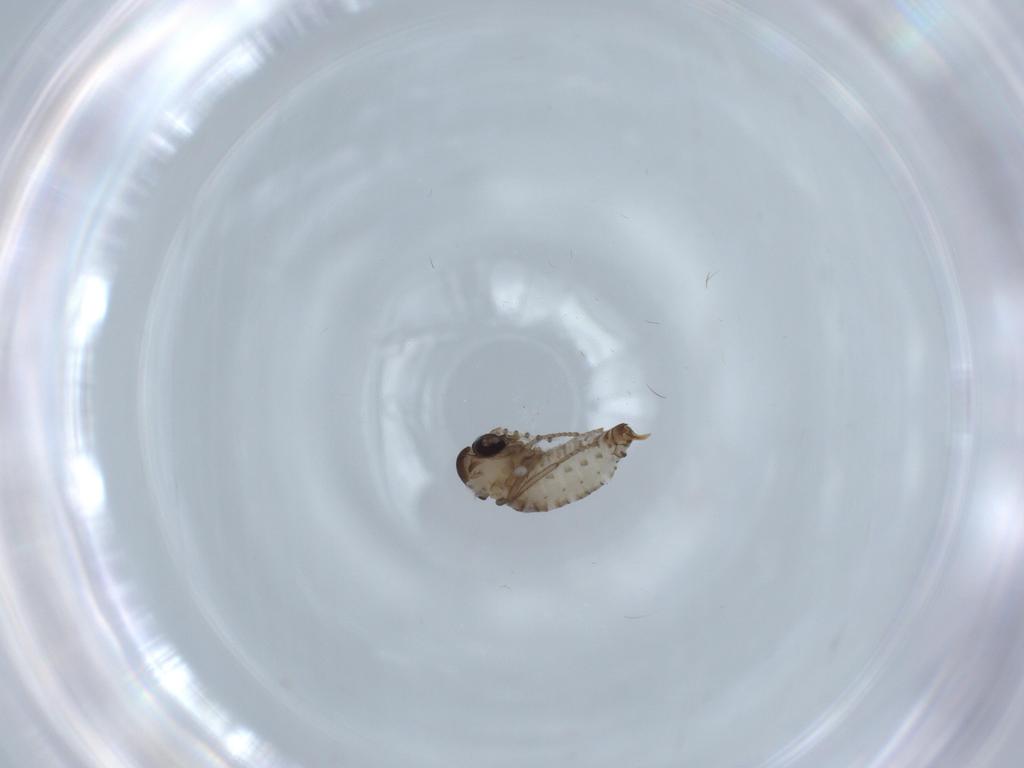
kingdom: Animalia
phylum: Arthropoda
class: Insecta
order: Diptera
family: Psychodidae
